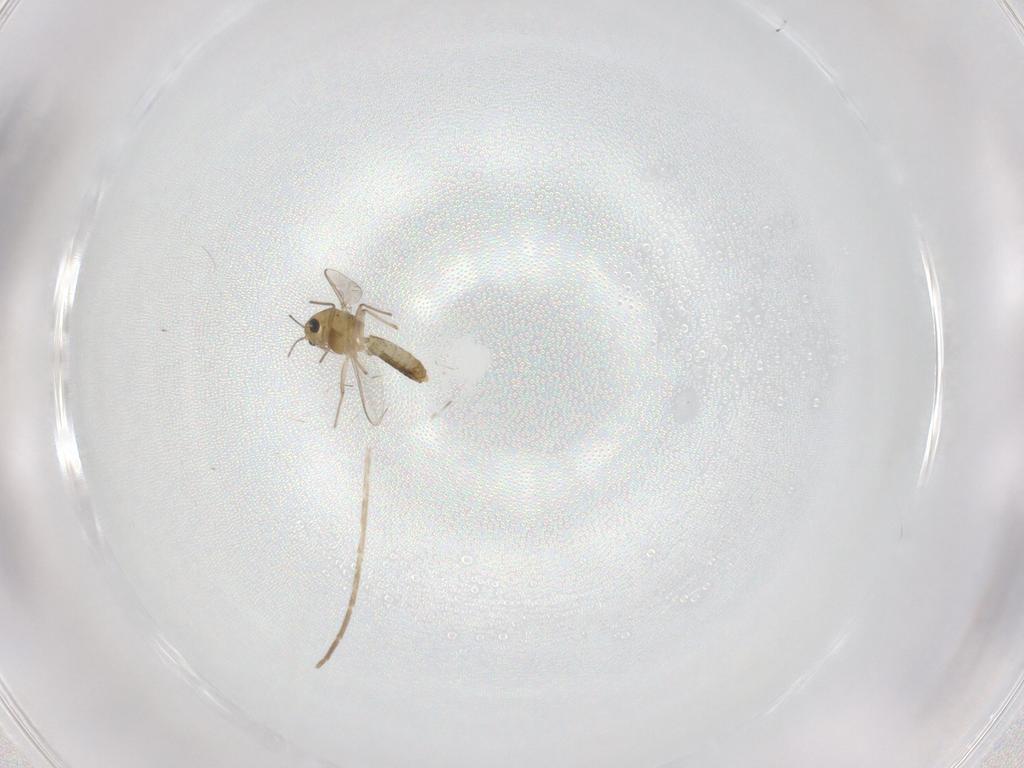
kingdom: Animalia
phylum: Arthropoda
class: Insecta
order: Diptera
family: Chironomidae
